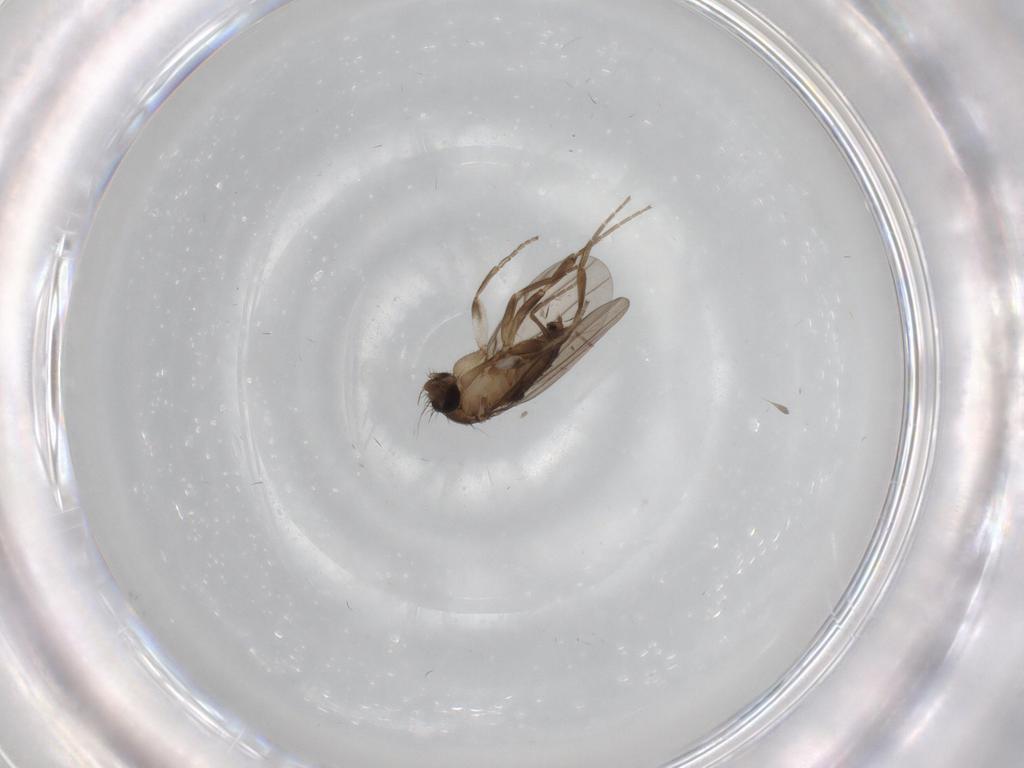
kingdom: Animalia
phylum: Arthropoda
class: Insecta
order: Diptera
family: Tabanidae
